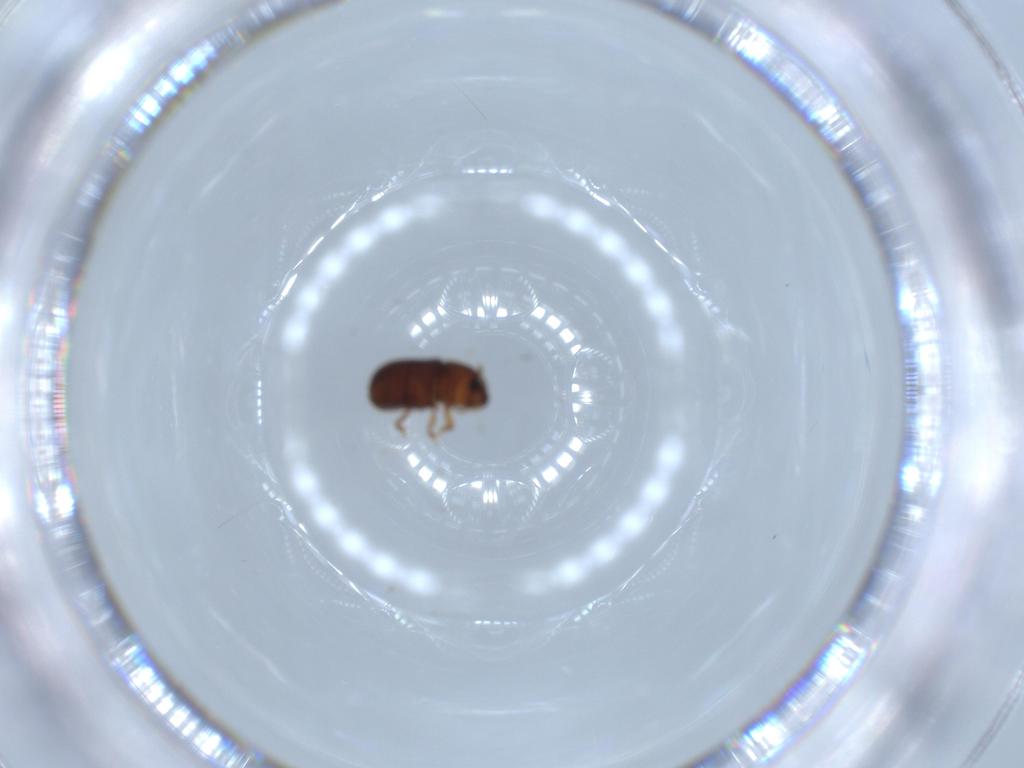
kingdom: Animalia
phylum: Arthropoda
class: Insecta
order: Coleoptera
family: Curculionidae
